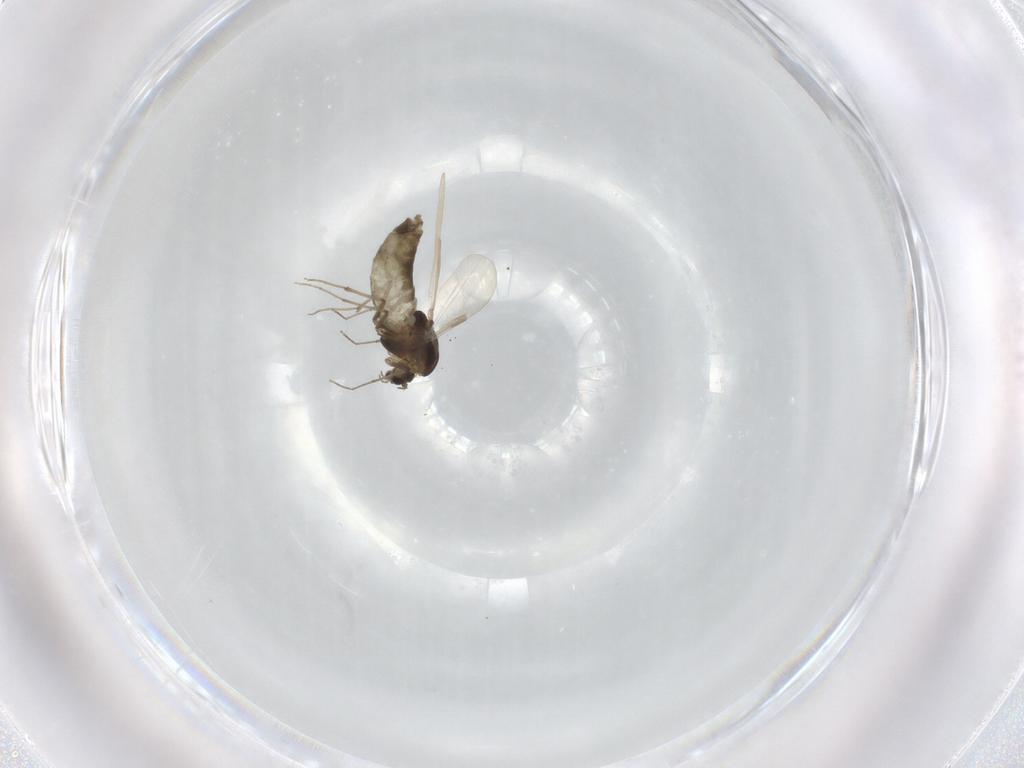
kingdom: Animalia
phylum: Arthropoda
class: Insecta
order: Diptera
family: Chironomidae
